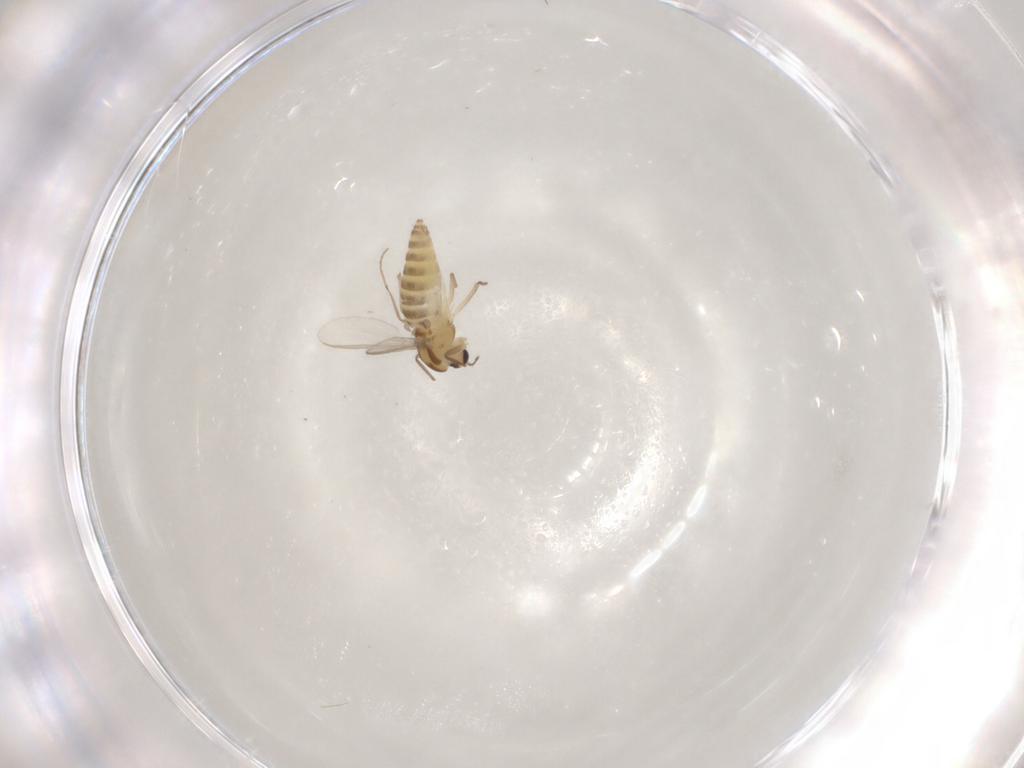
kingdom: Animalia
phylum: Arthropoda
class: Insecta
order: Diptera
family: Chironomidae
